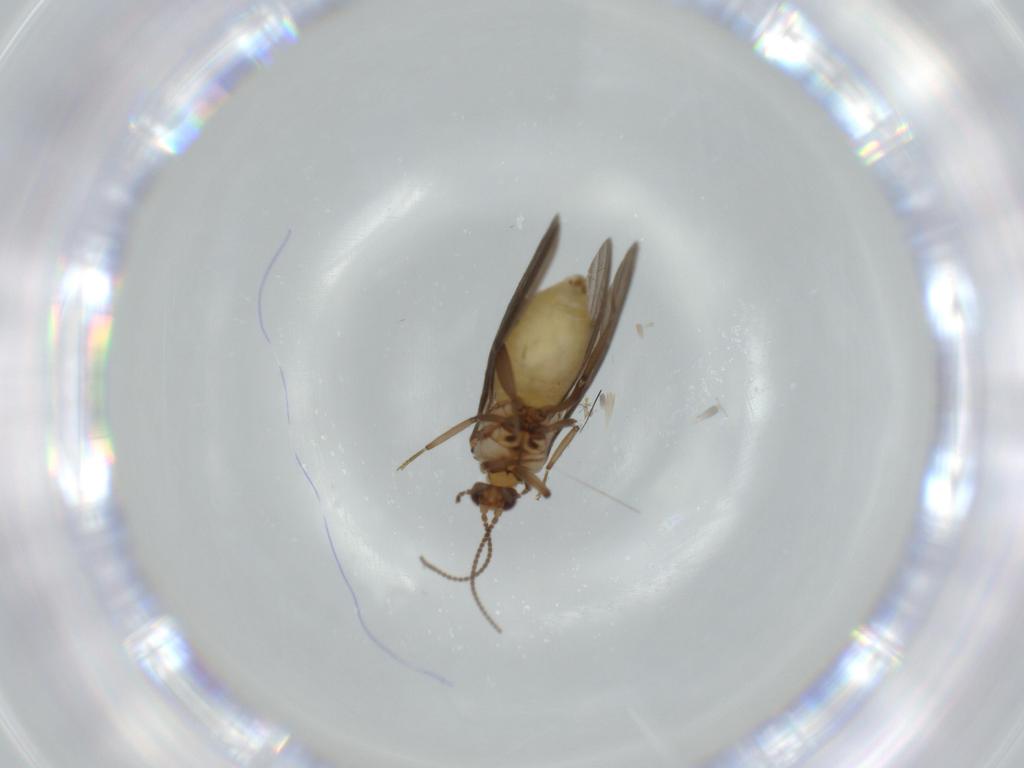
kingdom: Animalia
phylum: Arthropoda
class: Insecta
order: Neuroptera
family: Coniopterygidae
